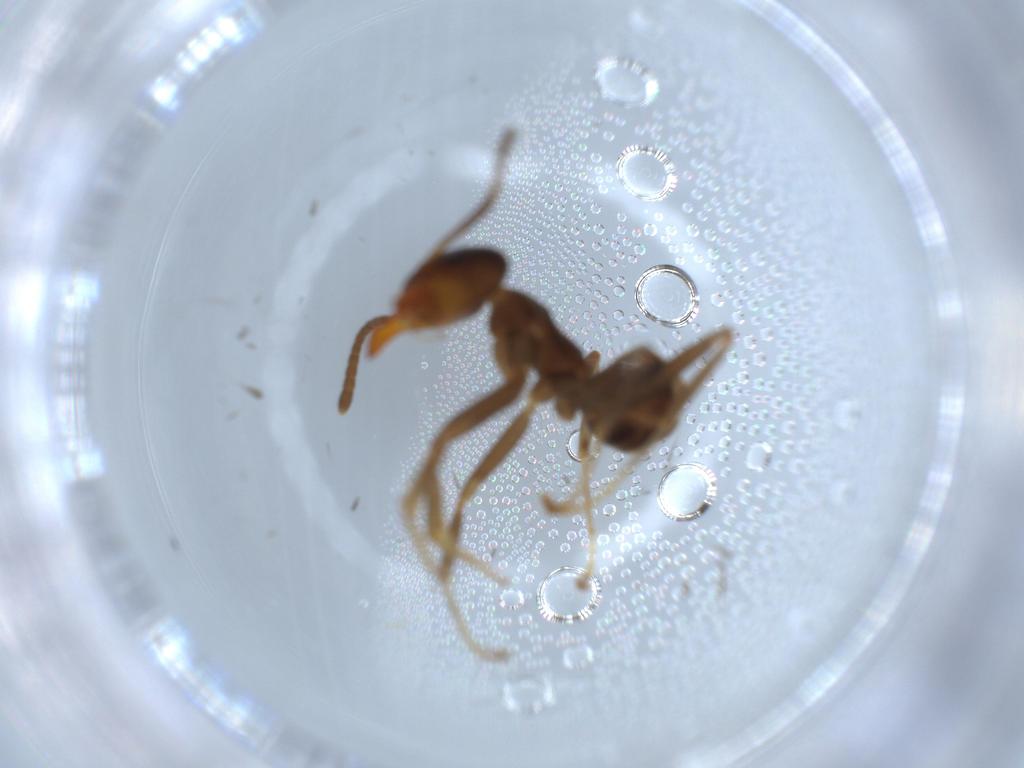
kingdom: Animalia
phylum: Arthropoda
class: Insecta
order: Hymenoptera
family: Formicidae
